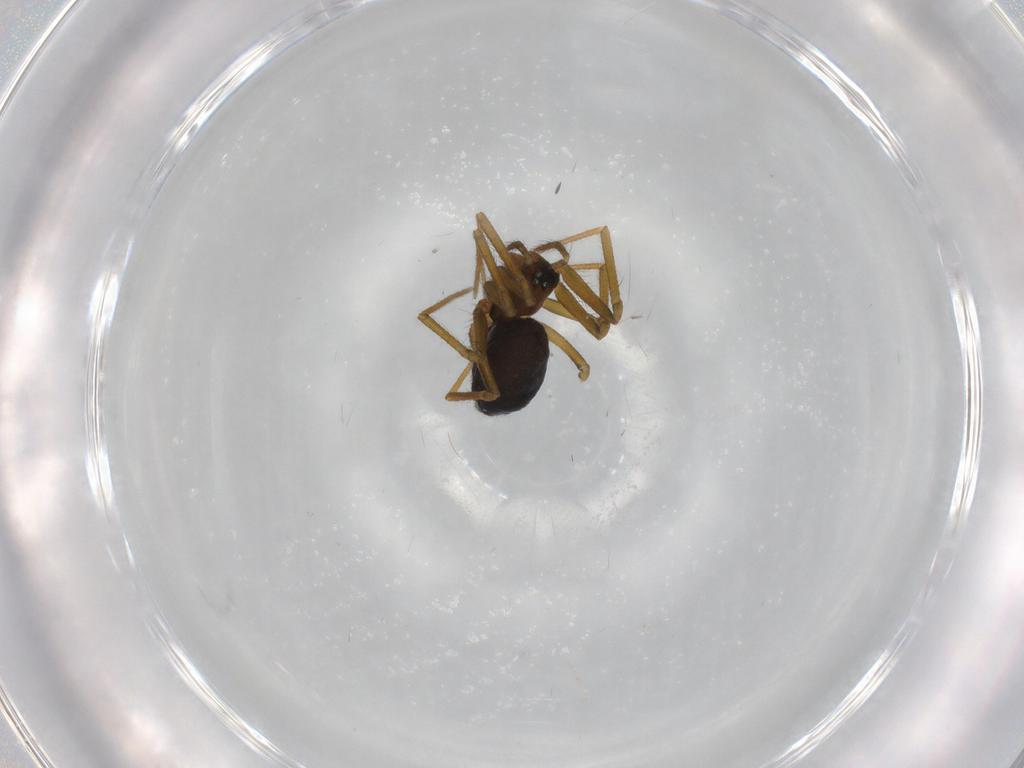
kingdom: Animalia
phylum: Arthropoda
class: Arachnida
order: Araneae
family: Linyphiidae
